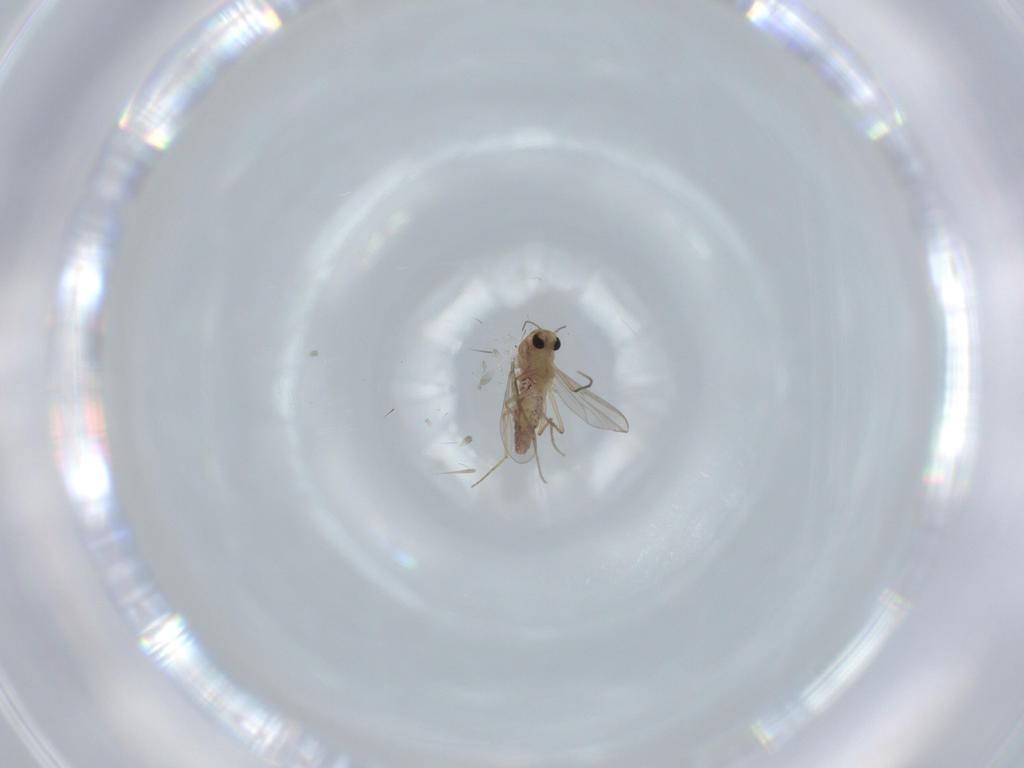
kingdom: Animalia
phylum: Arthropoda
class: Insecta
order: Diptera
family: Chironomidae
